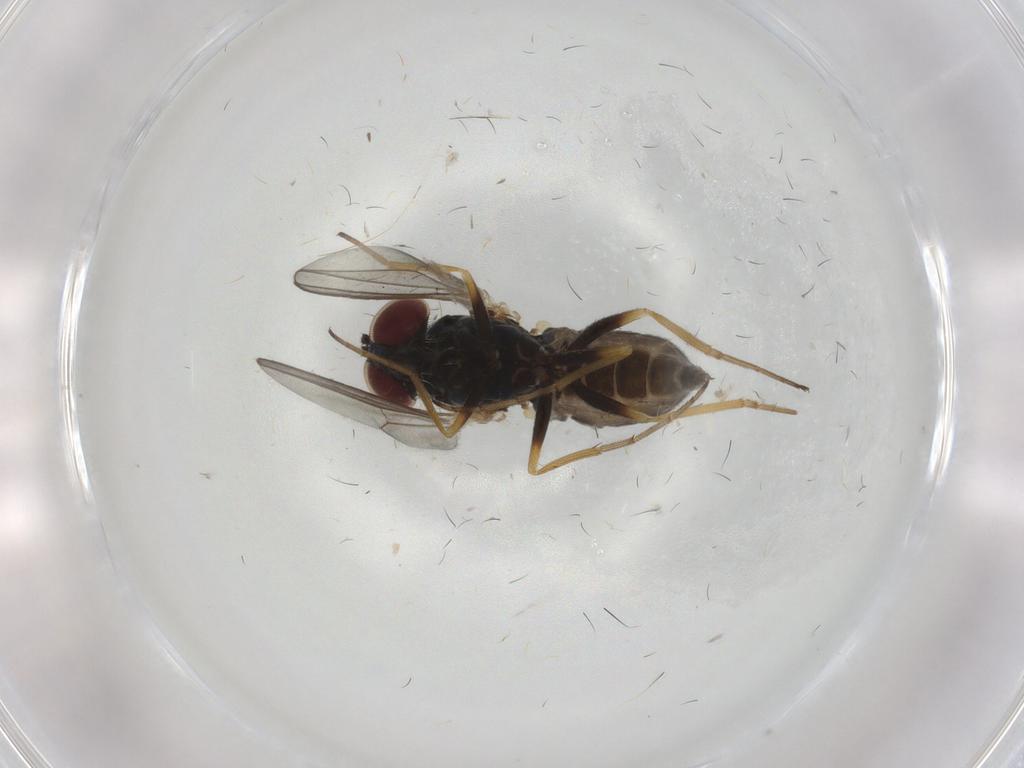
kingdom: Animalia
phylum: Arthropoda
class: Insecta
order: Diptera
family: Dolichopodidae
